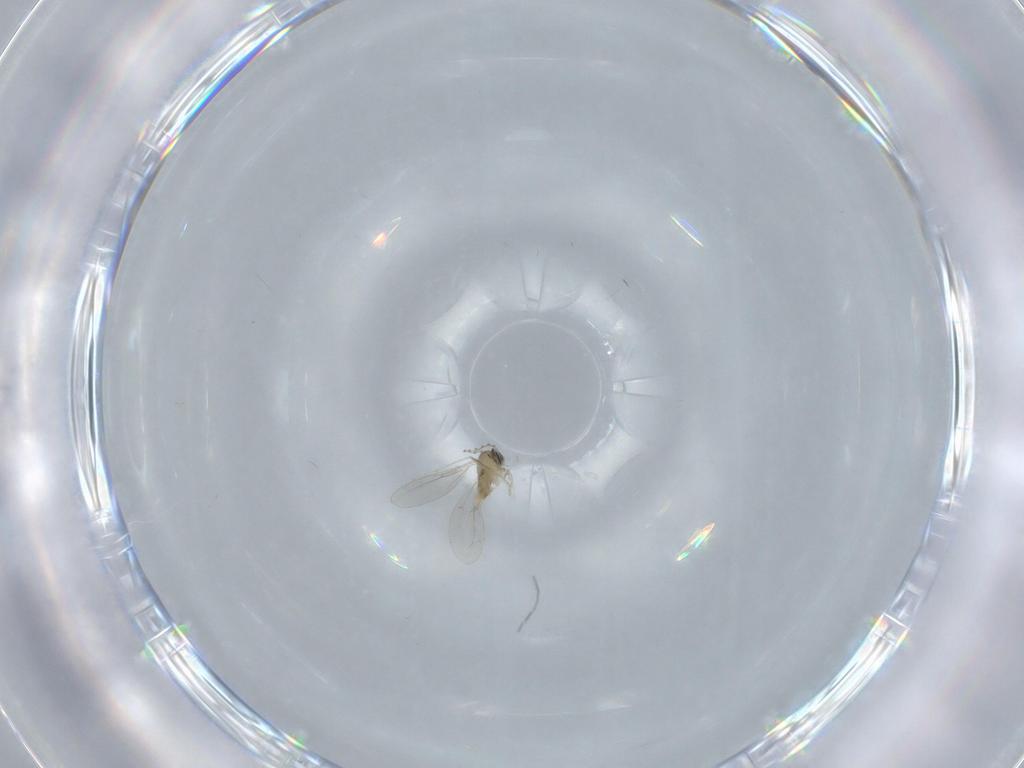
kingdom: Animalia
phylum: Arthropoda
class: Insecta
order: Diptera
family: Cecidomyiidae
